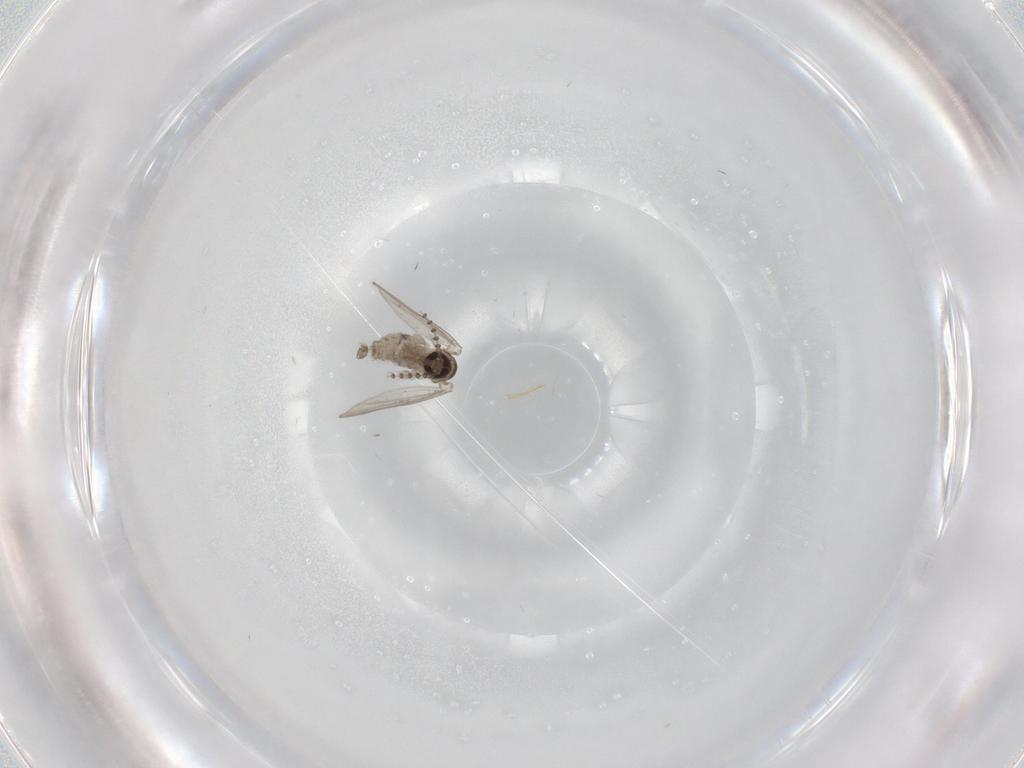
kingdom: Animalia
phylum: Arthropoda
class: Insecta
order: Diptera
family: Psychodidae
